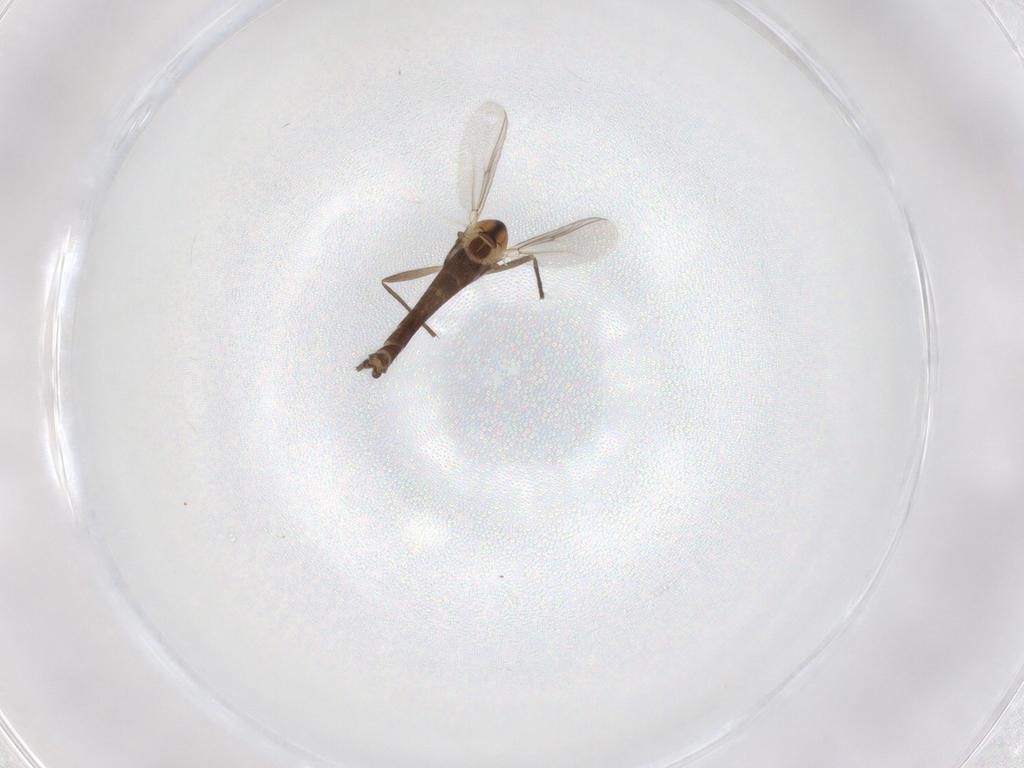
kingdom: Animalia
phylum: Arthropoda
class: Insecta
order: Diptera
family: Chironomidae
